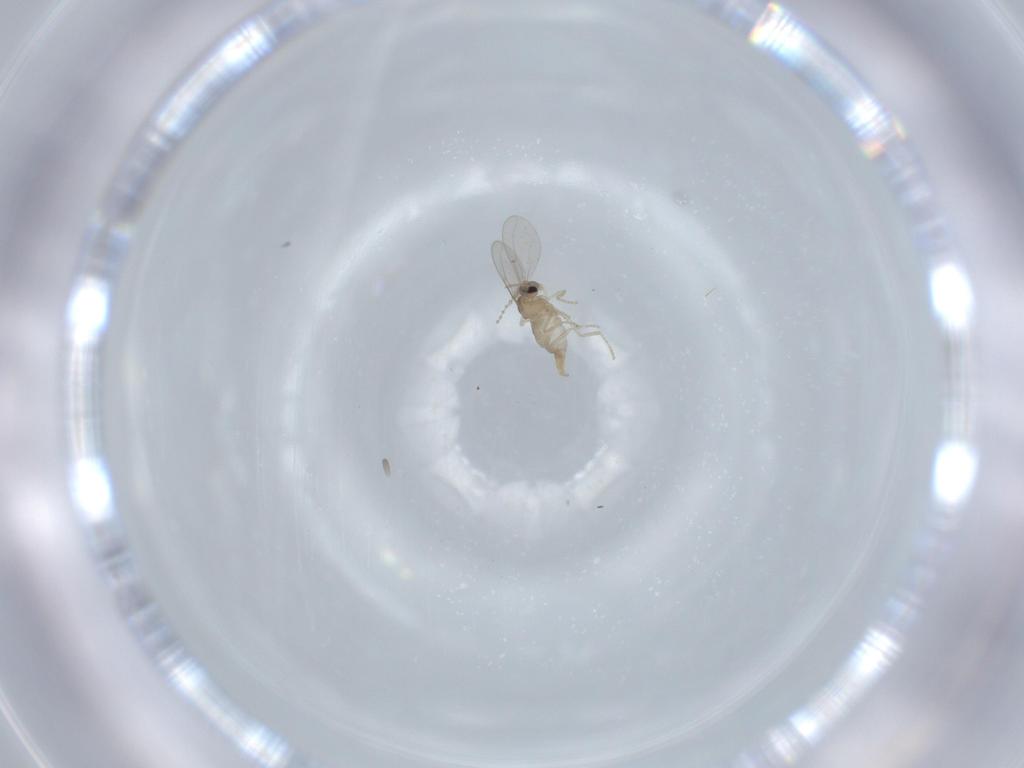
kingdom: Animalia
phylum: Arthropoda
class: Insecta
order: Diptera
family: Cecidomyiidae
